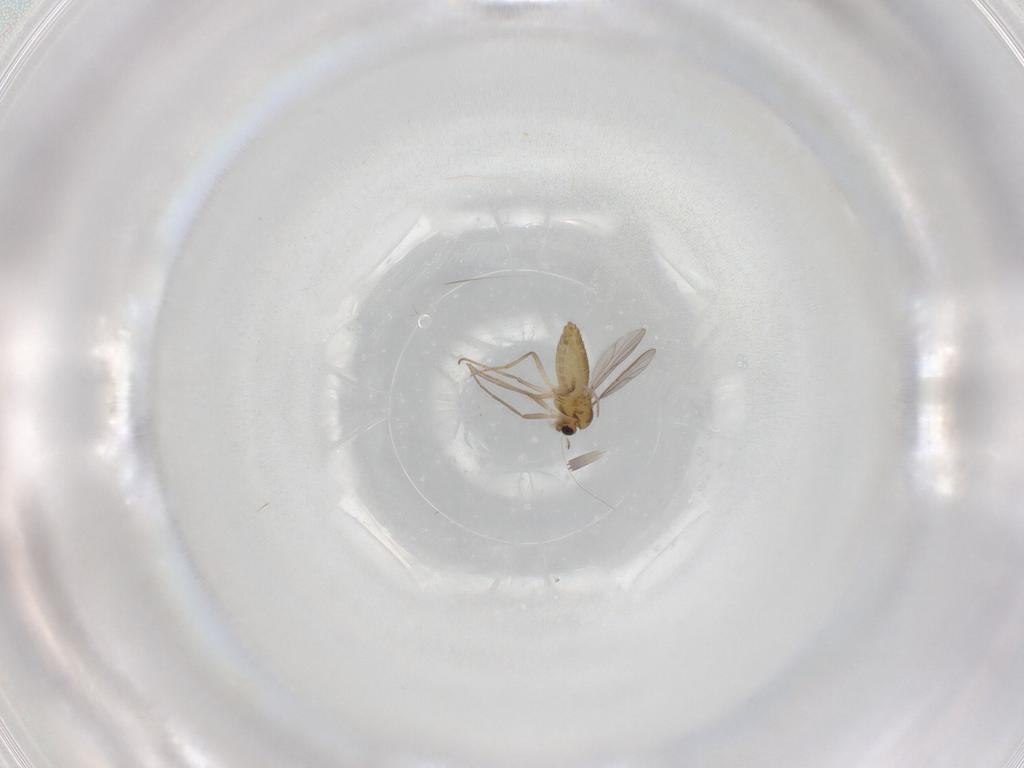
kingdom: Animalia
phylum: Arthropoda
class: Insecta
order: Diptera
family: Chironomidae
